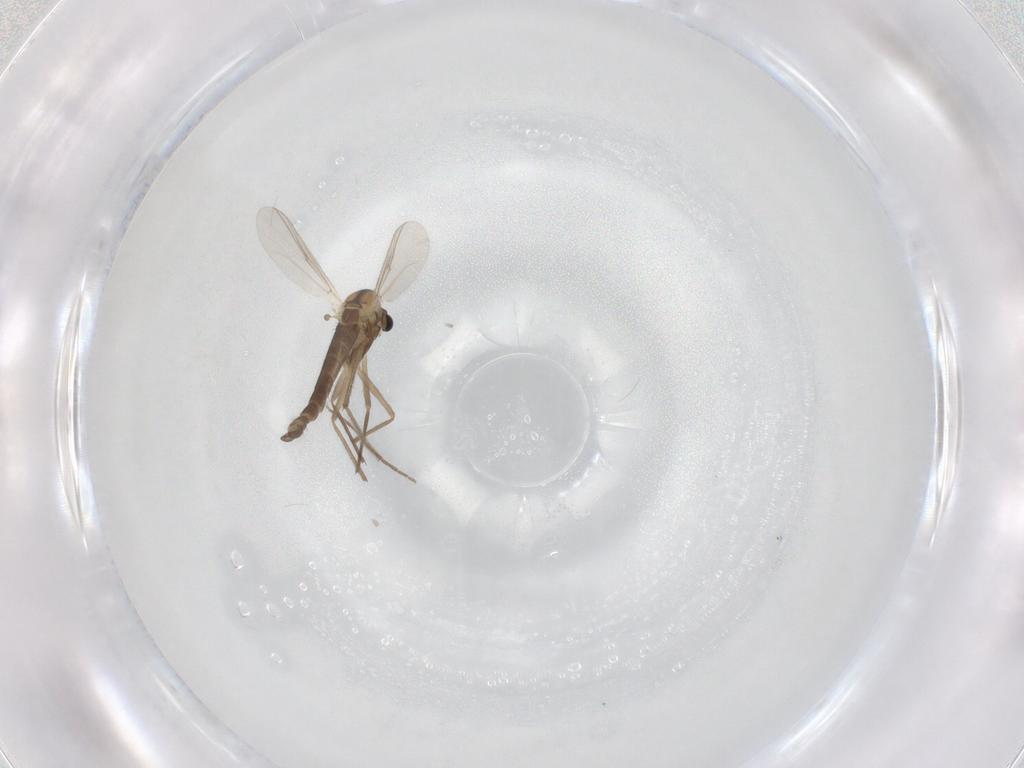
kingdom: Animalia
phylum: Arthropoda
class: Insecta
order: Diptera
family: Chironomidae
